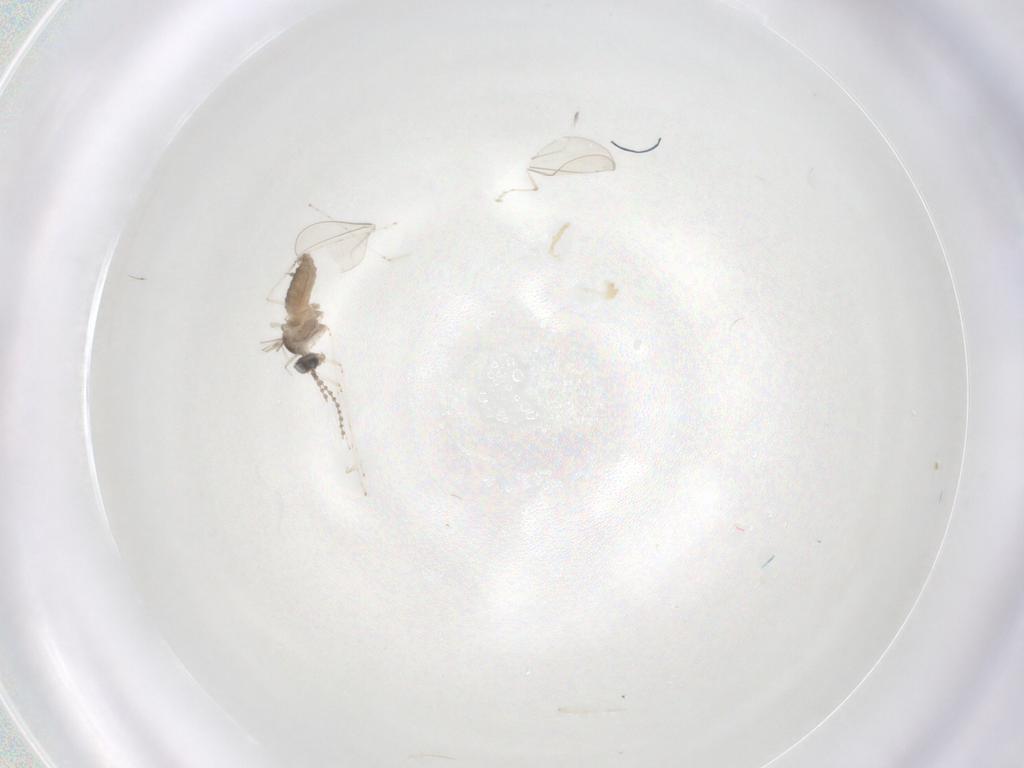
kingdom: Animalia
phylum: Arthropoda
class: Insecta
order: Diptera
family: Cecidomyiidae
